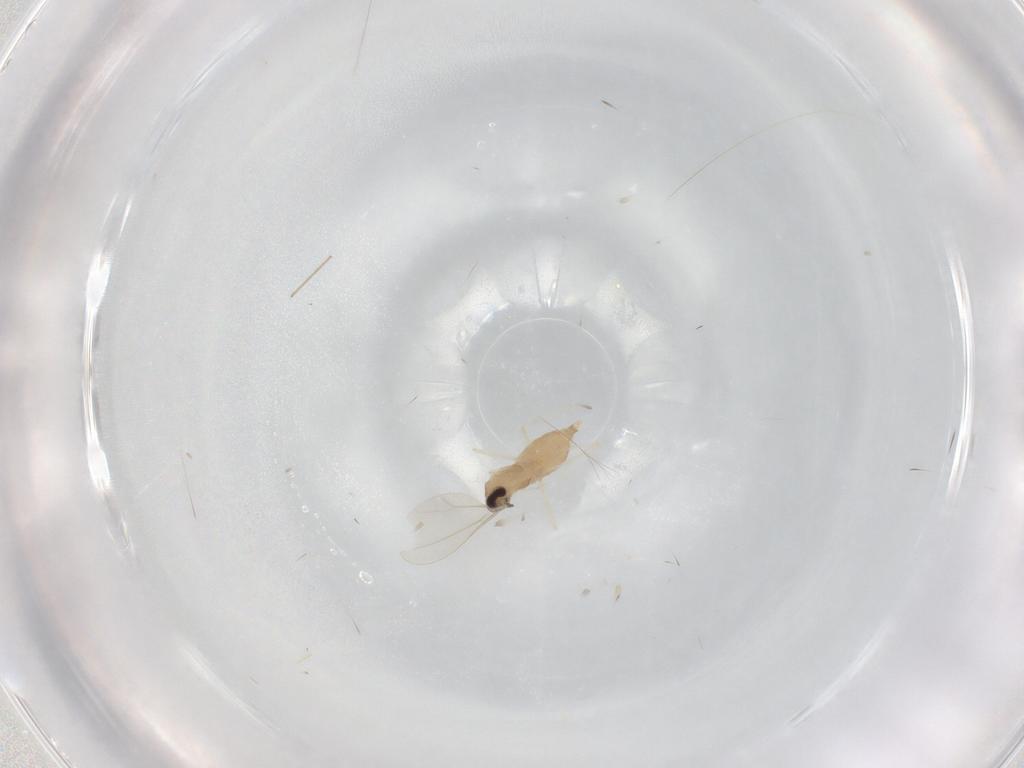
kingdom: Animalia
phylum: Arthropoda
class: Insecta
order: Diptera
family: Cecidomyiidae
